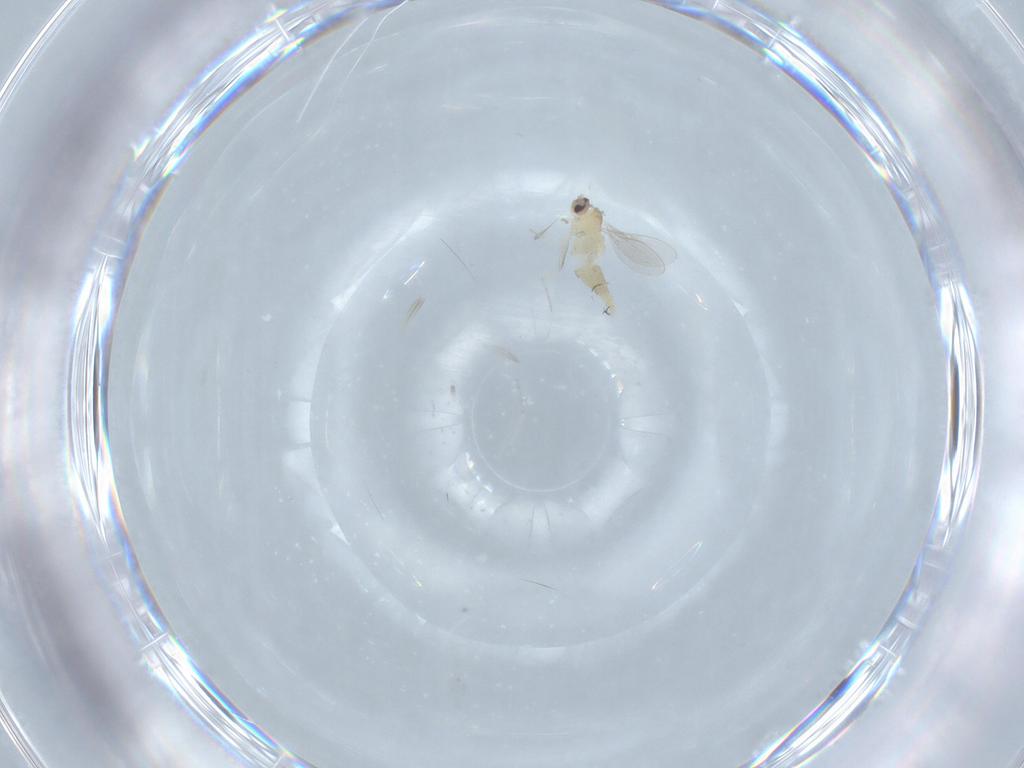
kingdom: Animalia
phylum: Arthropoda
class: Insecta
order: Diptera
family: Cecidomyiidae
